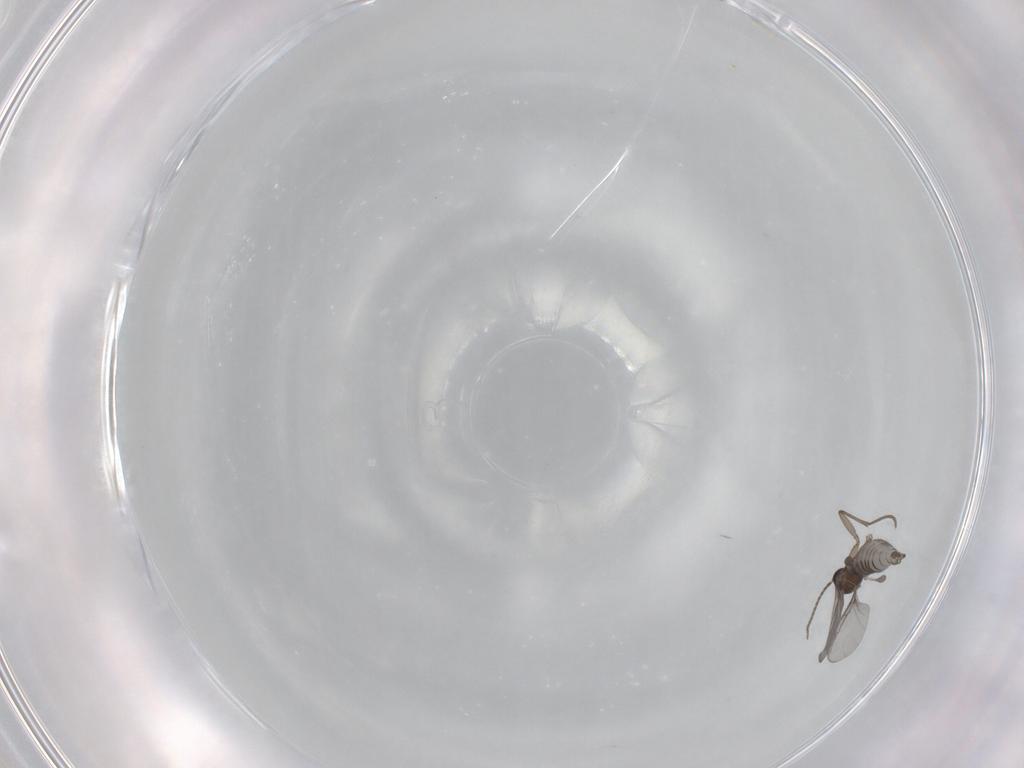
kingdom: Animalia
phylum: Arthropoda
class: Insecta
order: Diptera
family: Sciaridae
